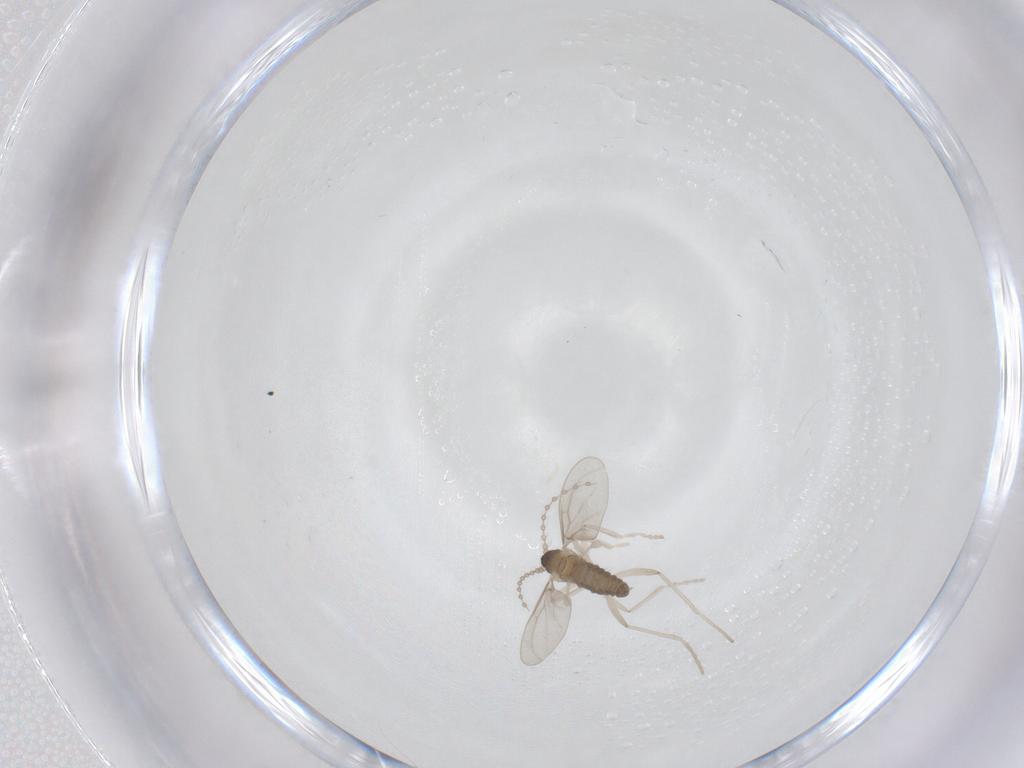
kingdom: Animalia
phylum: Arthropoda
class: Insecta
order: Diptera
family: Cecidomyiidae
